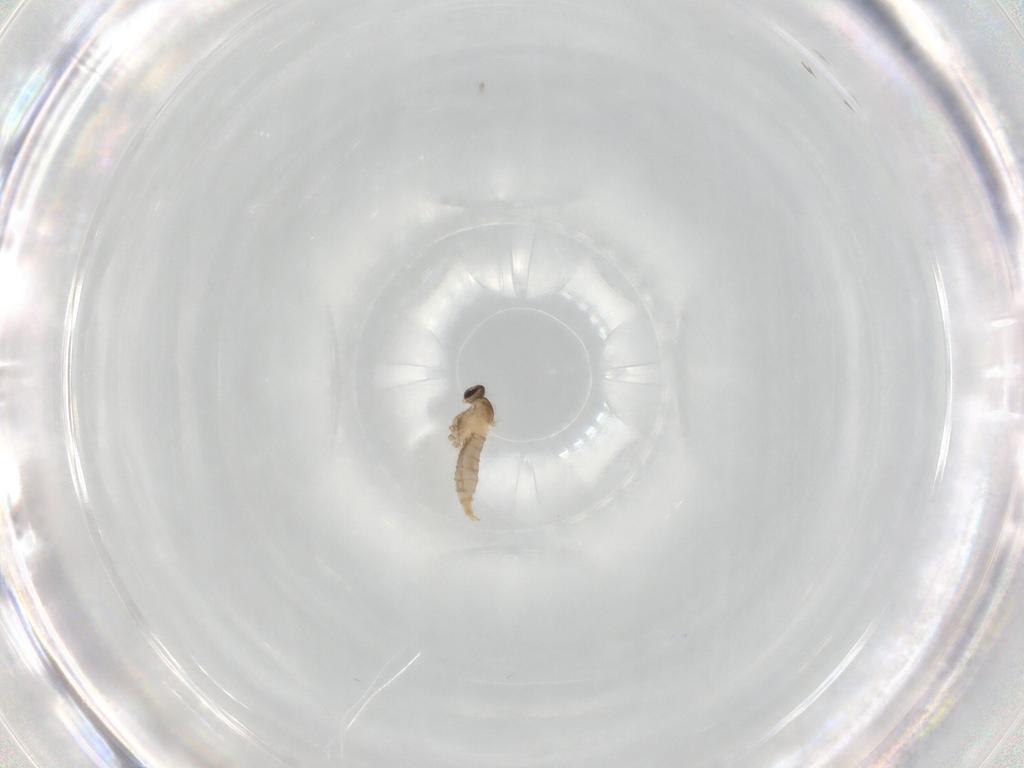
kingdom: Animalia
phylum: Arthropoda
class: Insecta
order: Diptera
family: Cecidomyiidae
